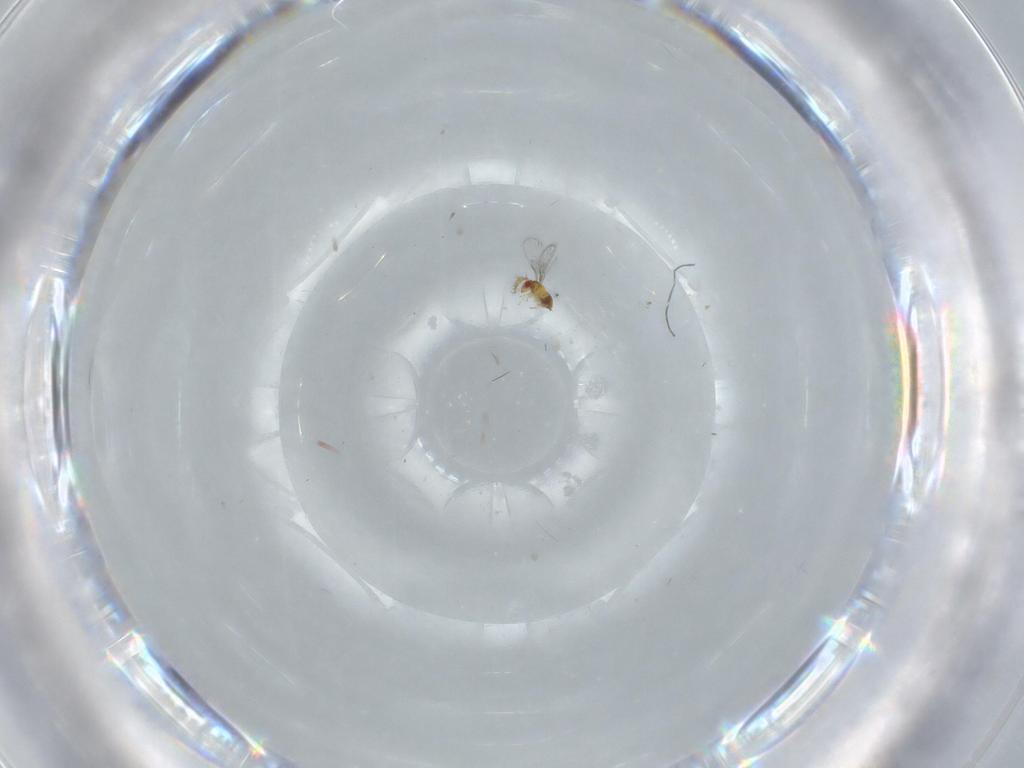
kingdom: Animalia
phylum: Arthropoda
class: Insecta
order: Hymenoptera
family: Trichogrammatidae
